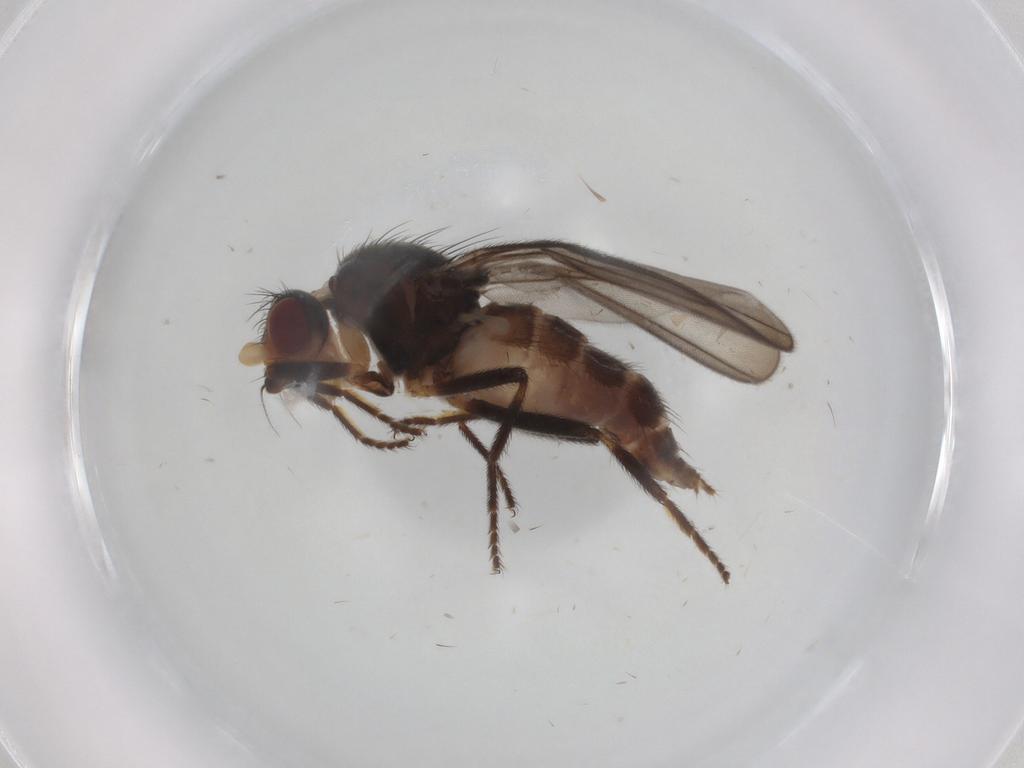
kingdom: Animalia
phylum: Arthropoda
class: Insecta
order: Diptera
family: Chloropidae
